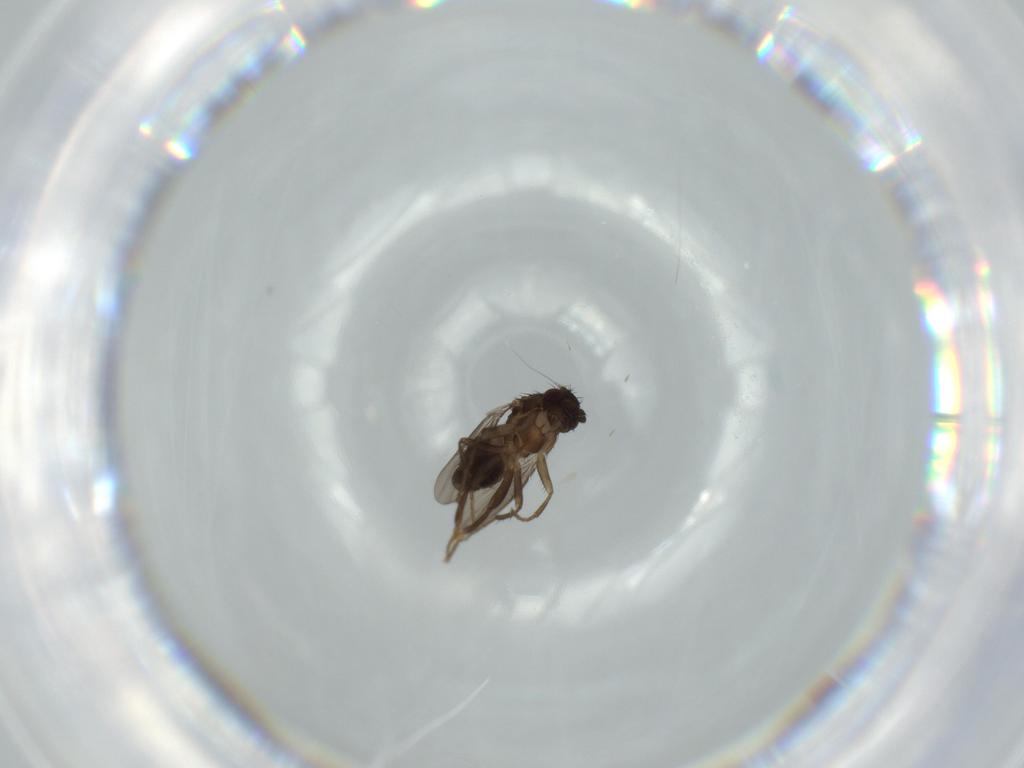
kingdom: Animalia
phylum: Arthropoda
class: Insecta
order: Diptera
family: Sphaeroceridae
